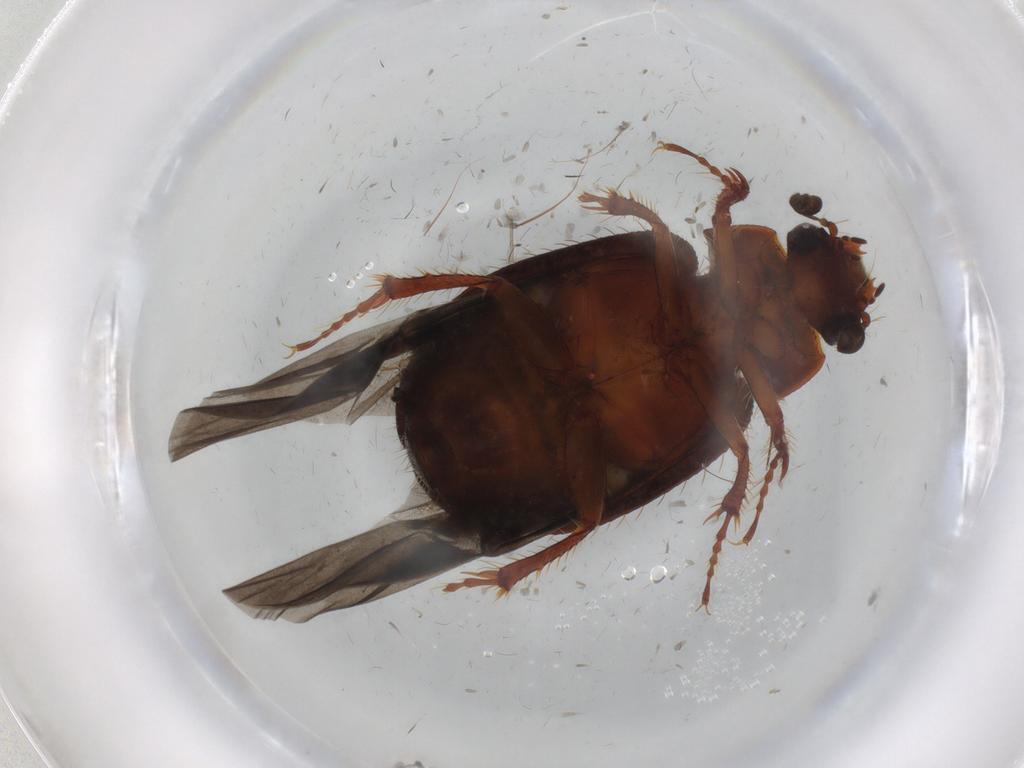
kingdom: Animalia
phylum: Arthropoda
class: Insecta
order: Coleoptera
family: Hybosoridae
